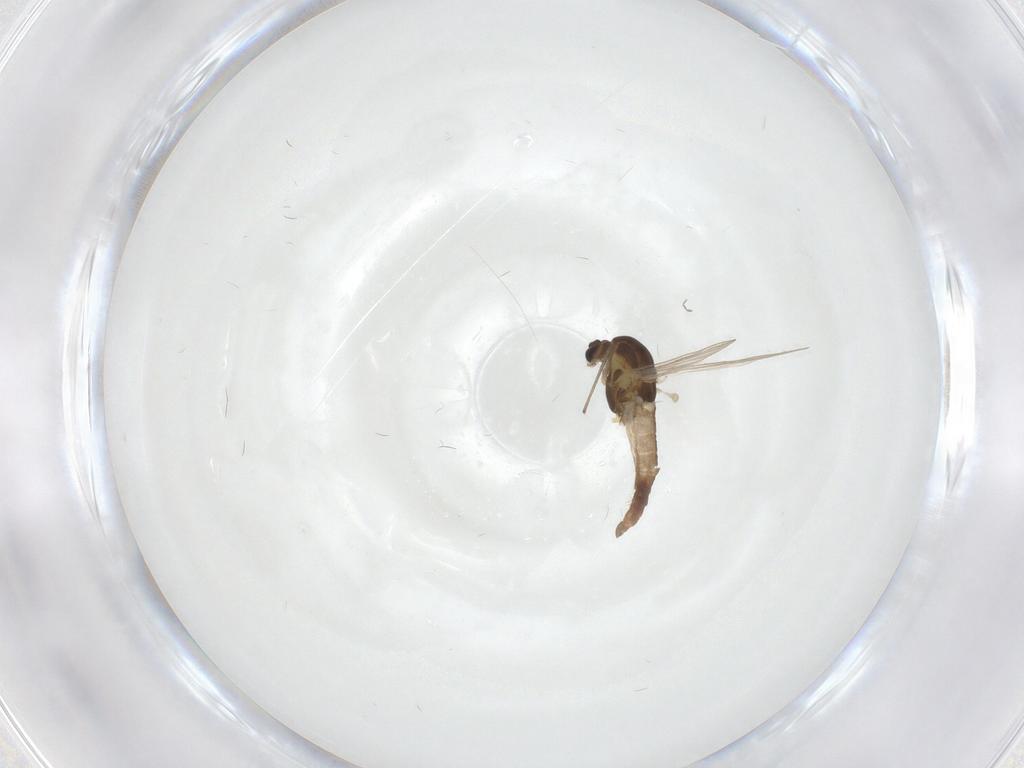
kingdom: Animalia
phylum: Arthropoda
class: Insecta
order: Diptera
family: Chironomidae
